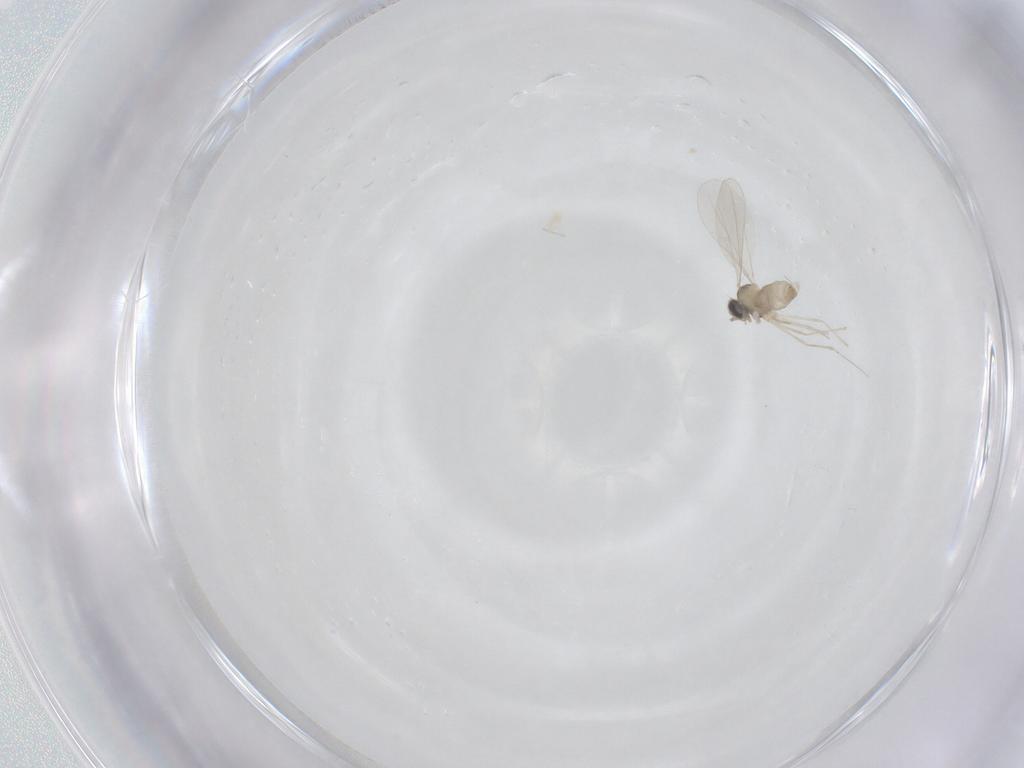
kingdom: Animalia
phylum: Arthropoda
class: Insecta
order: Diptera
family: Cecidomyiidae
